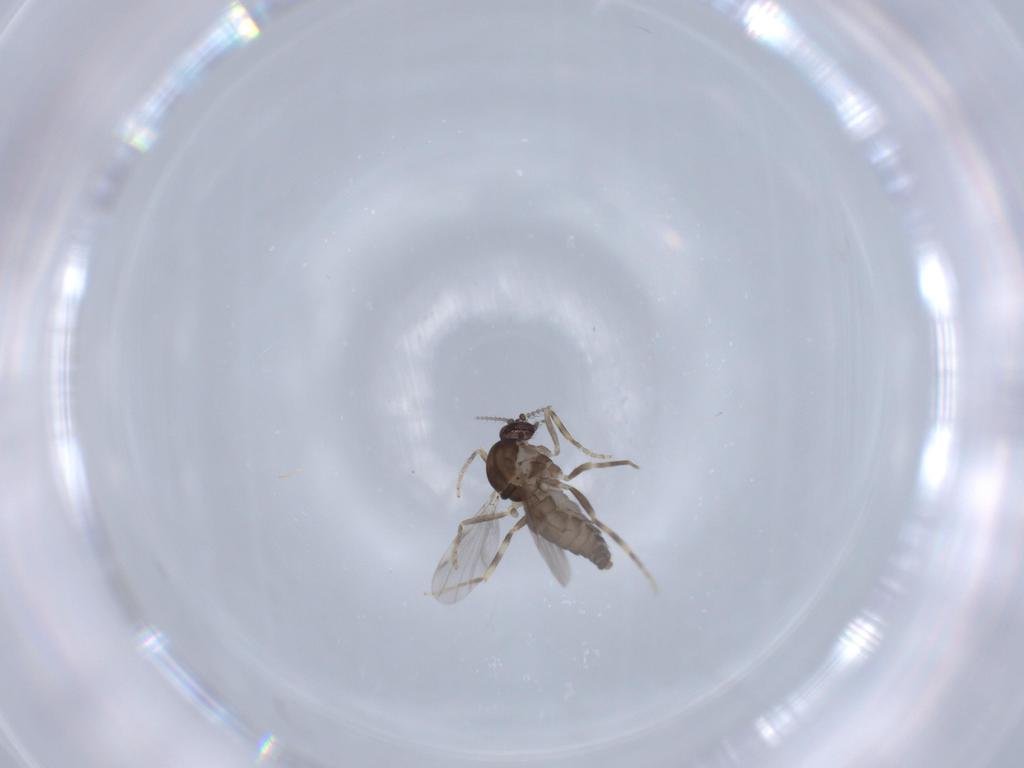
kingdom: Animalia
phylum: Arthropoda
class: Insecta
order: Diptera
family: Ceratopogonidae
